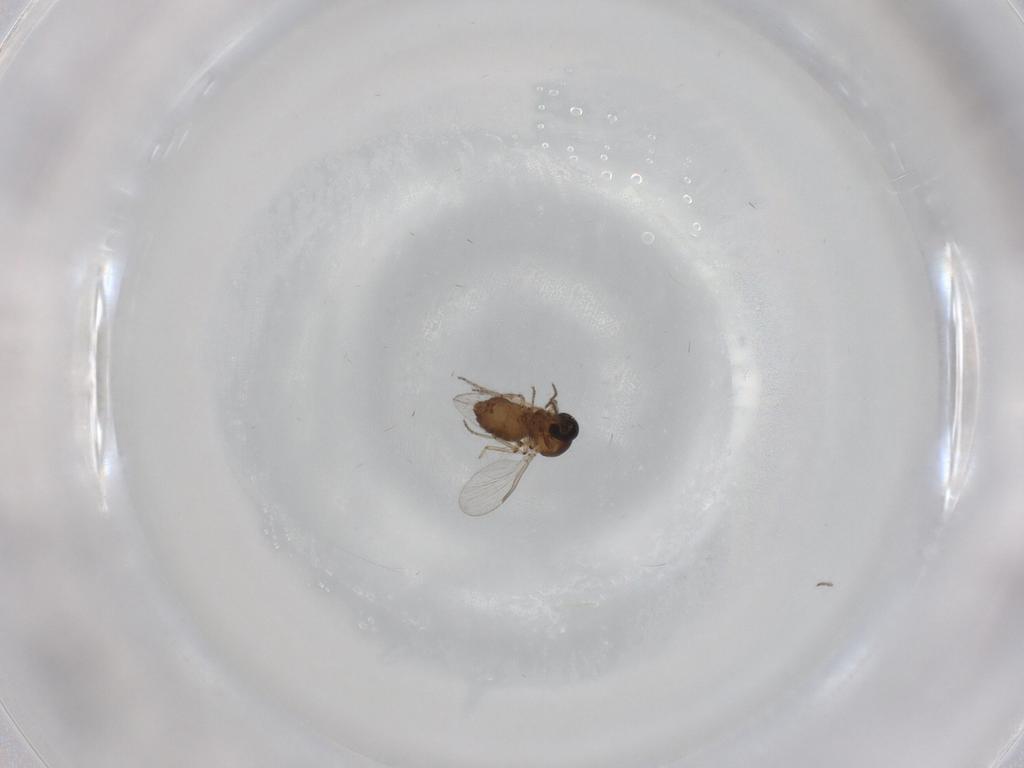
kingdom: Animalia
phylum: Arthropoda
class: Insecta
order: Diptera
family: Ceratopogonidae
